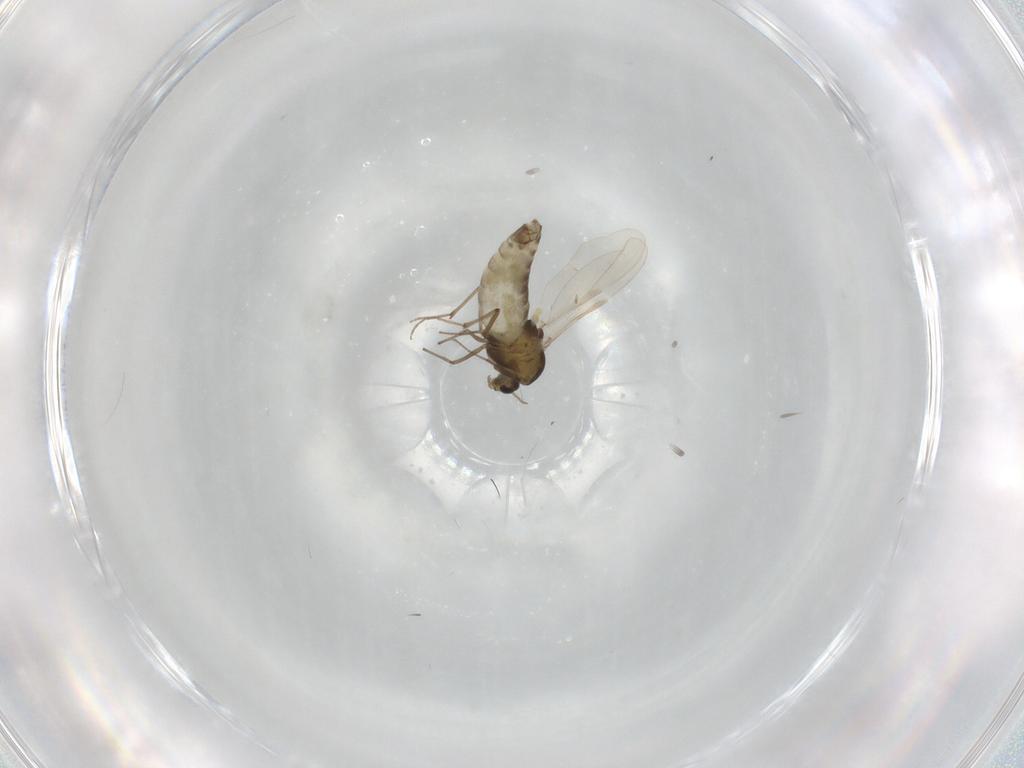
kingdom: Animalia
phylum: Arthropoda
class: Insecta
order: Diptera
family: Chironomidae
